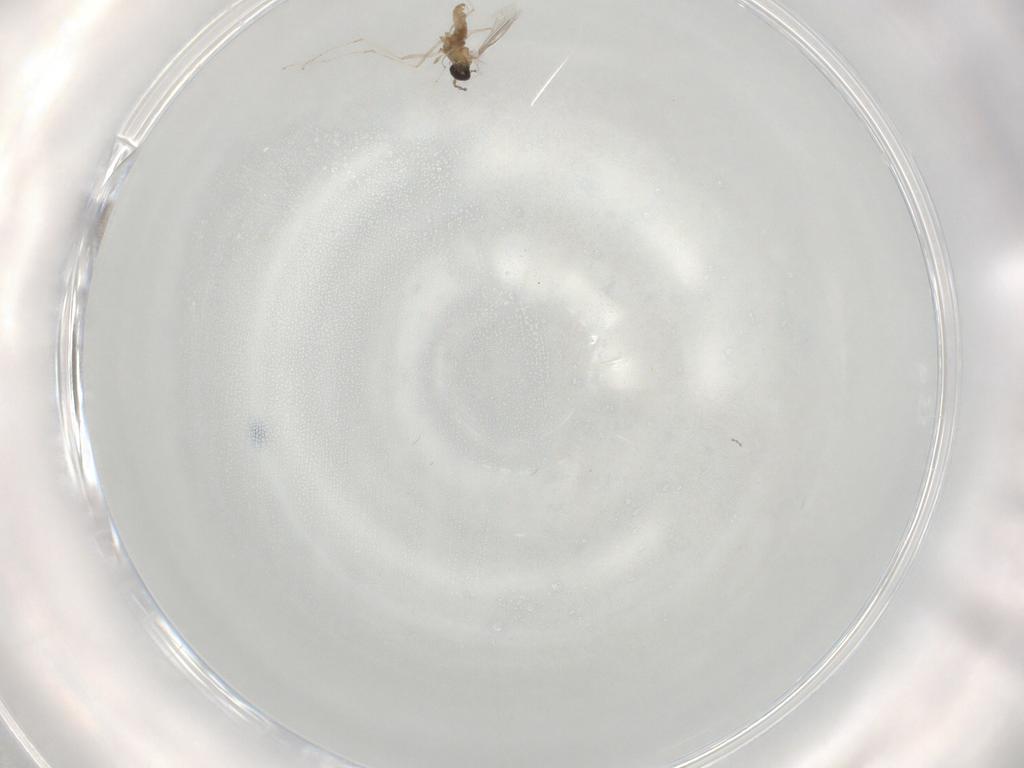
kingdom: Animalia
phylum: Arthropoda
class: Insecta
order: Diptera
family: Cecidomyiidae
